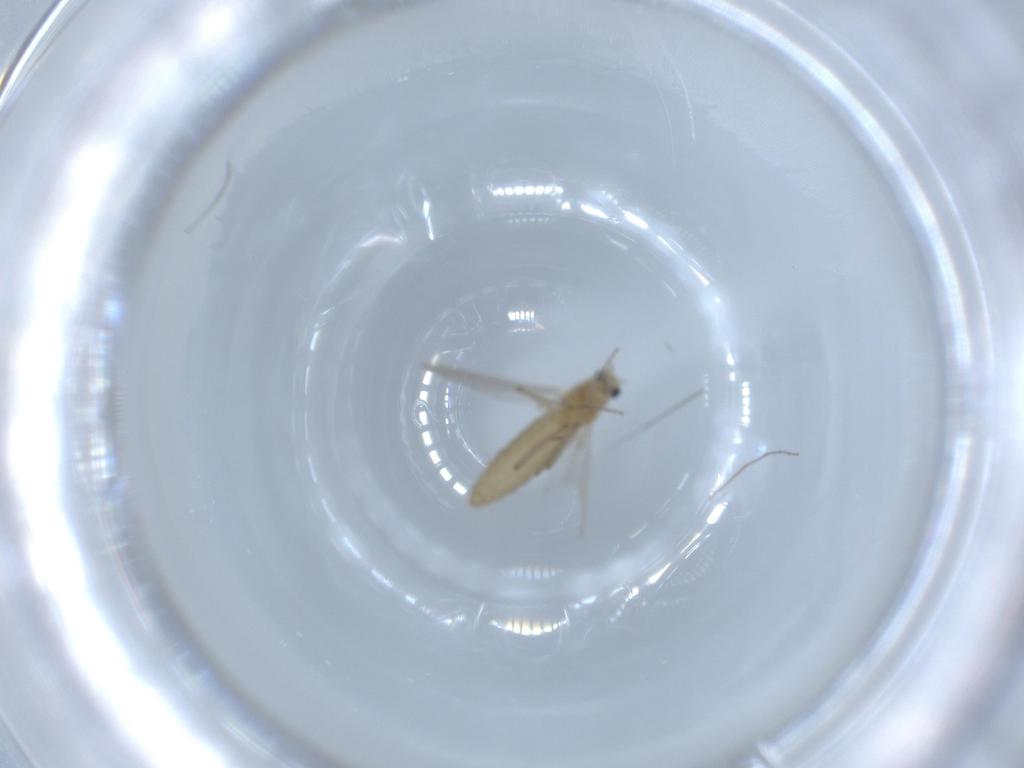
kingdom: Animalia
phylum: Arthropoda
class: Insecta
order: Diptera
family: Chironomidae
